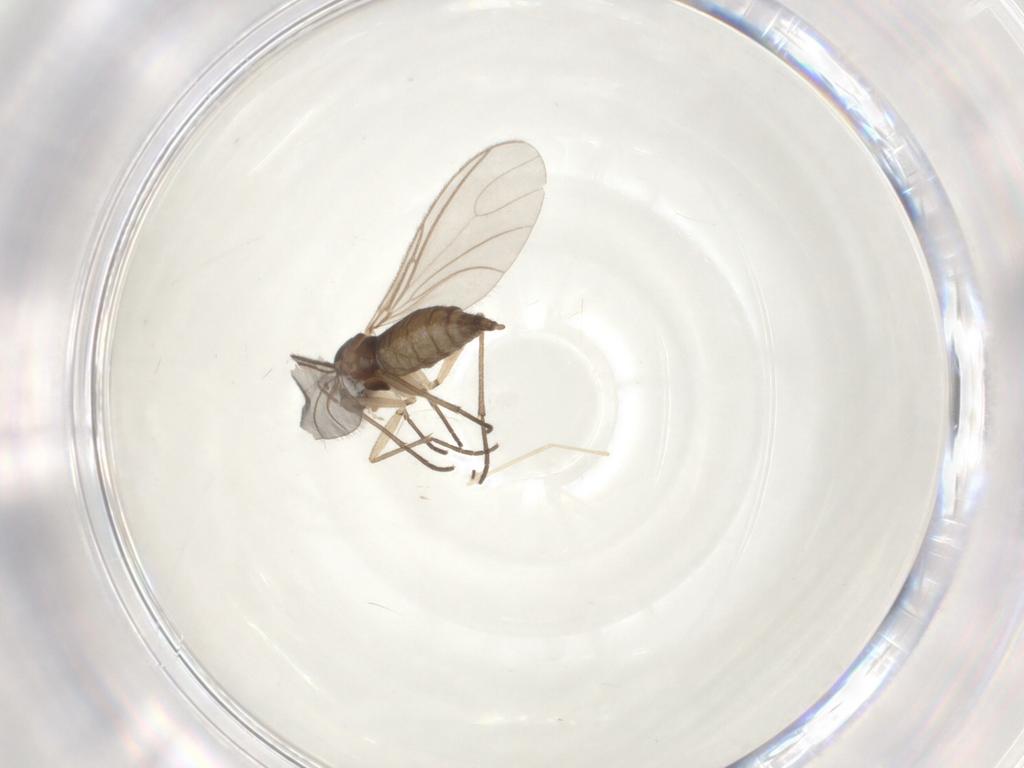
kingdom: Animalia
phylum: Arthropoda
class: Insecta
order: Diptera
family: Cecidomyiidae
